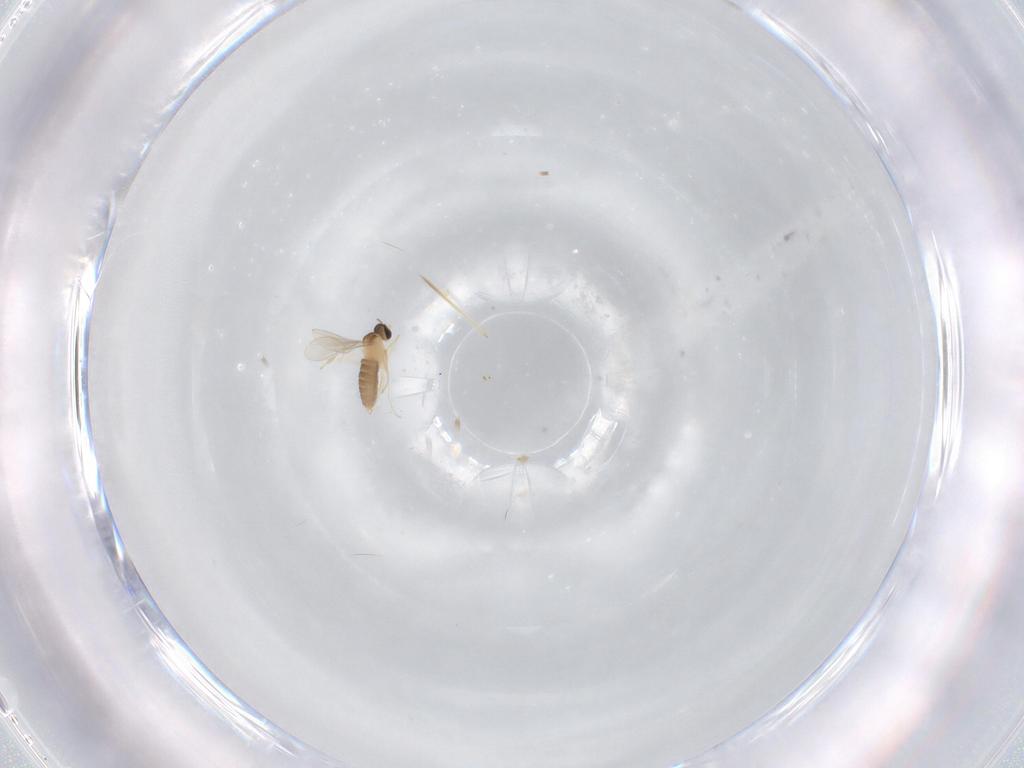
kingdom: Animalia
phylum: Arthropoda
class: Insecta
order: Diptera
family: Cecidomyiidae
